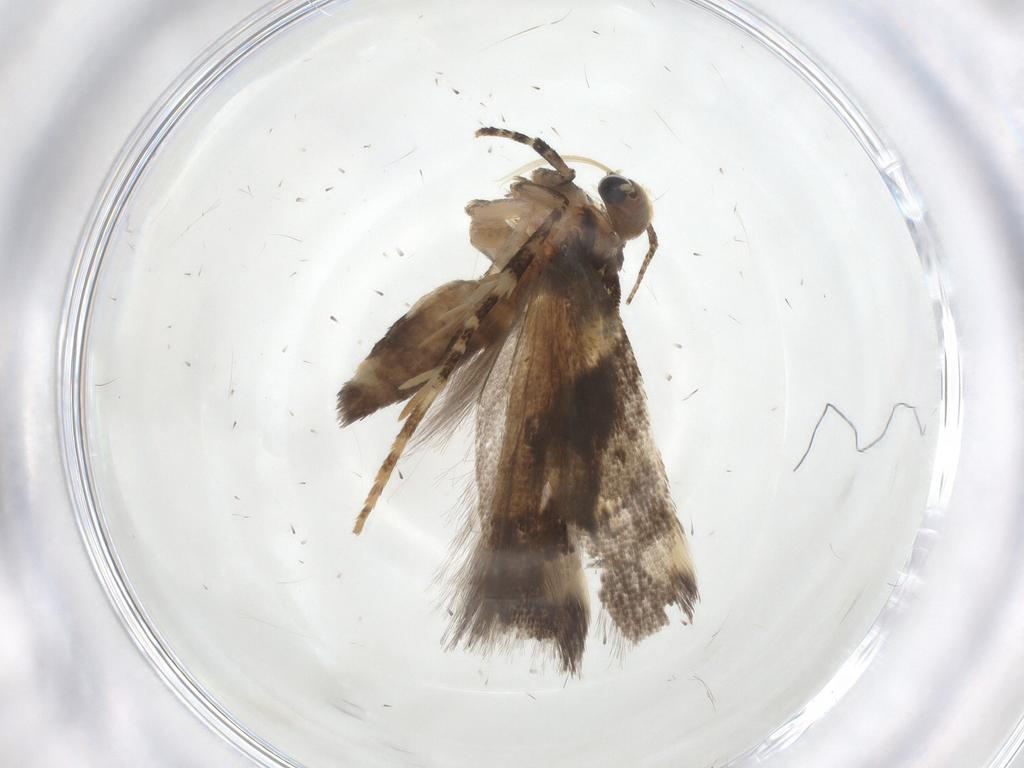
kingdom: Animalia
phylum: Arthropoda
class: Insecta
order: Lepidoptera
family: Gelechiidae
